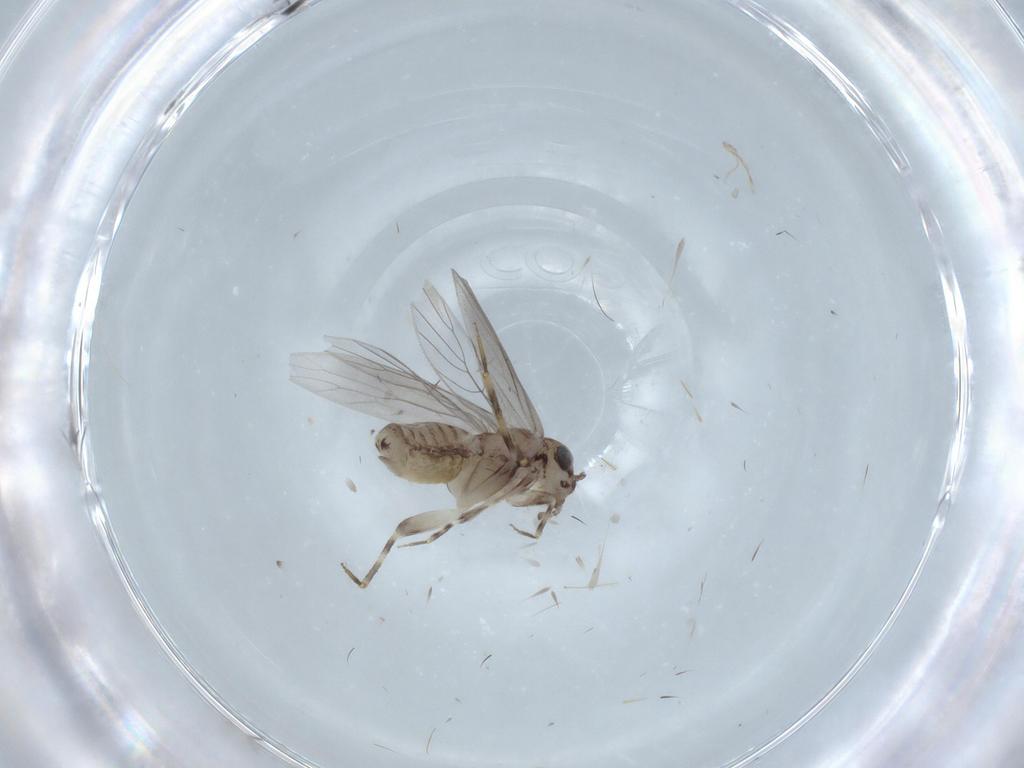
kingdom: Animalia
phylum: Arthropoda
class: Insecta
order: Psocodea
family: Lepidopsocidae
